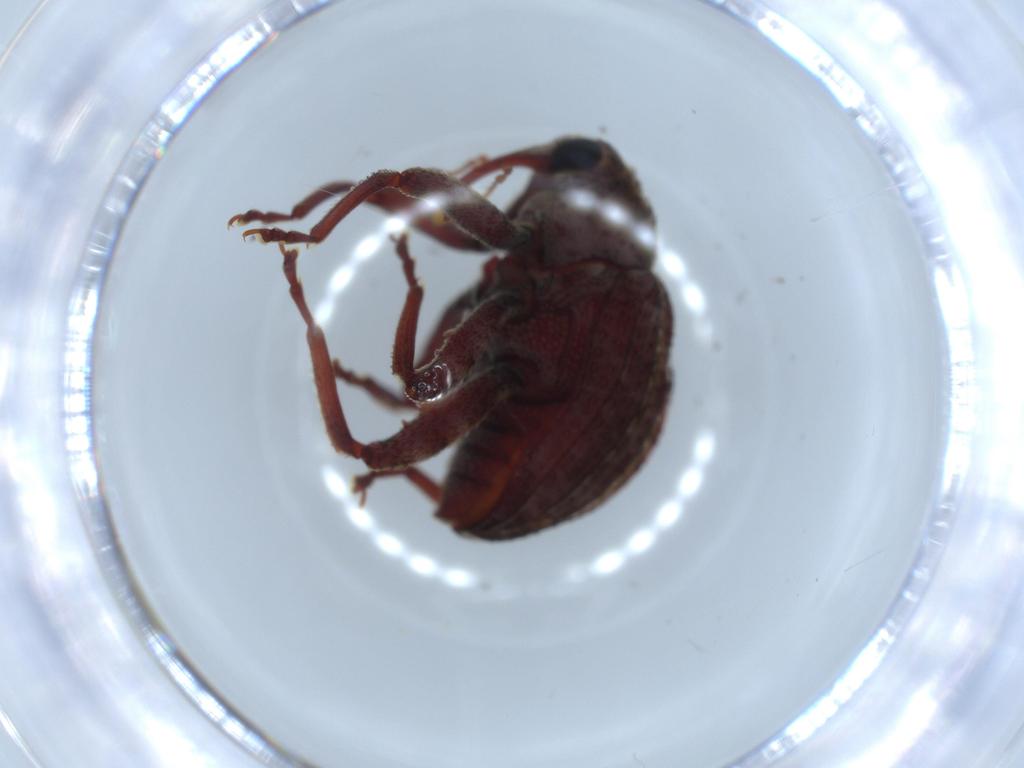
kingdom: Animalia
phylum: Arthropoda
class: Insecta
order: Coleoptera
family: Curculionidae
